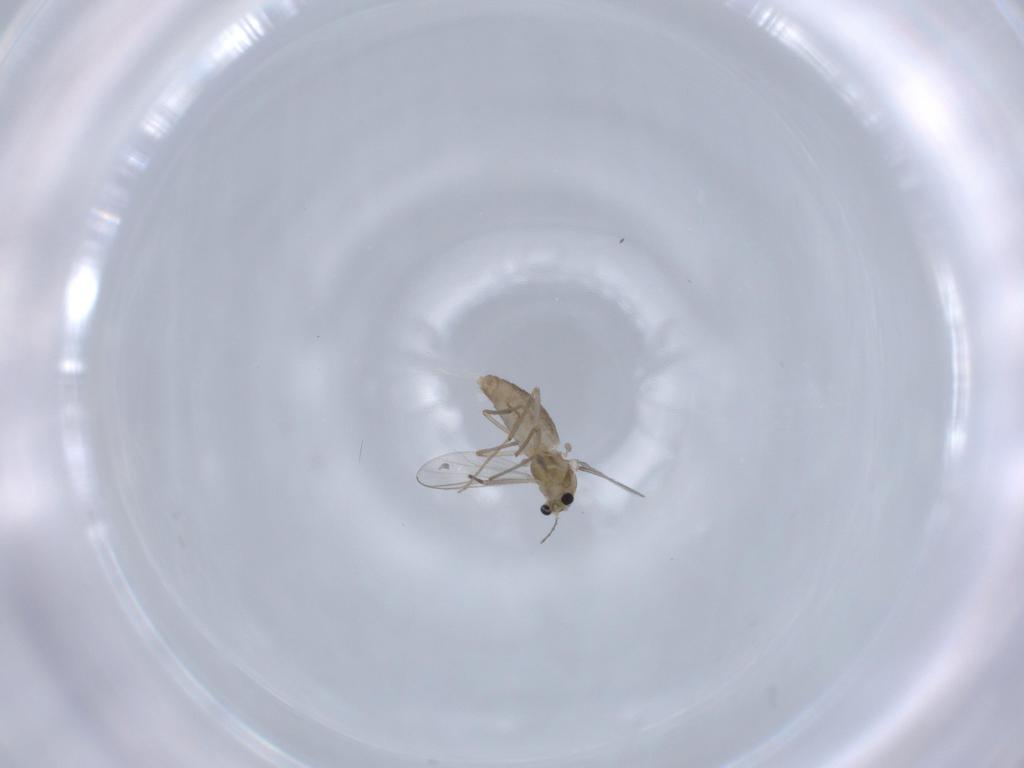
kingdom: Animalia
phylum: Arthropoda
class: Insecta
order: Diptera
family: Chironomidae
